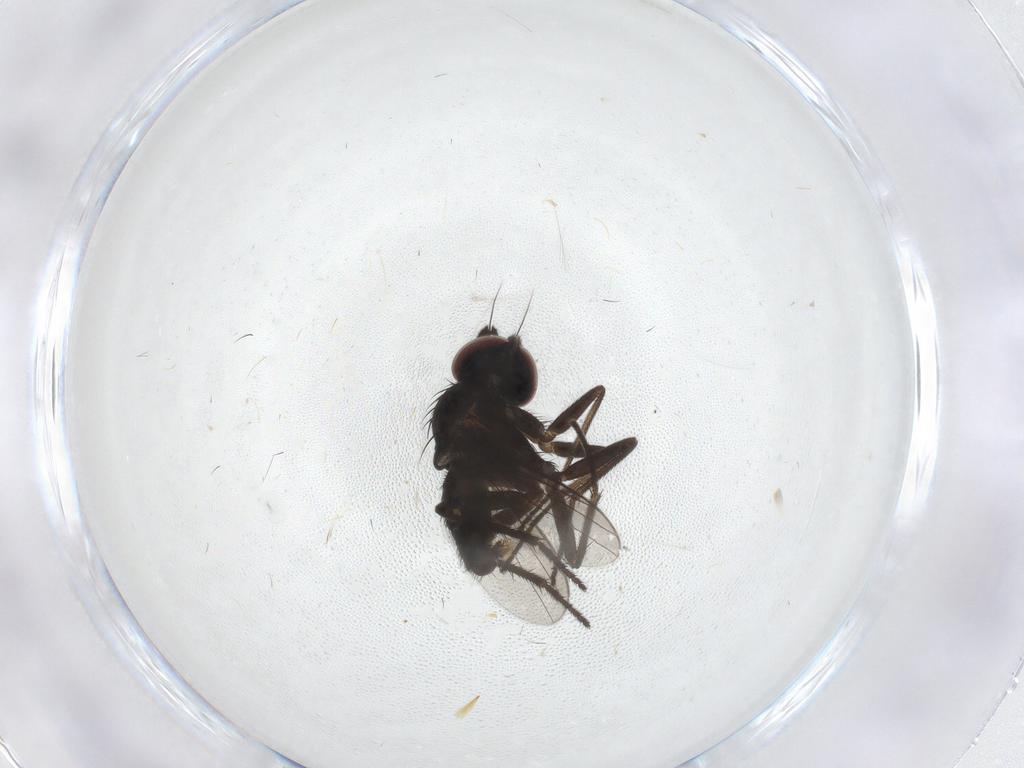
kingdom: Animalia
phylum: Arthropoda
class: Insecta
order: Diptera
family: Dolichopodidae
